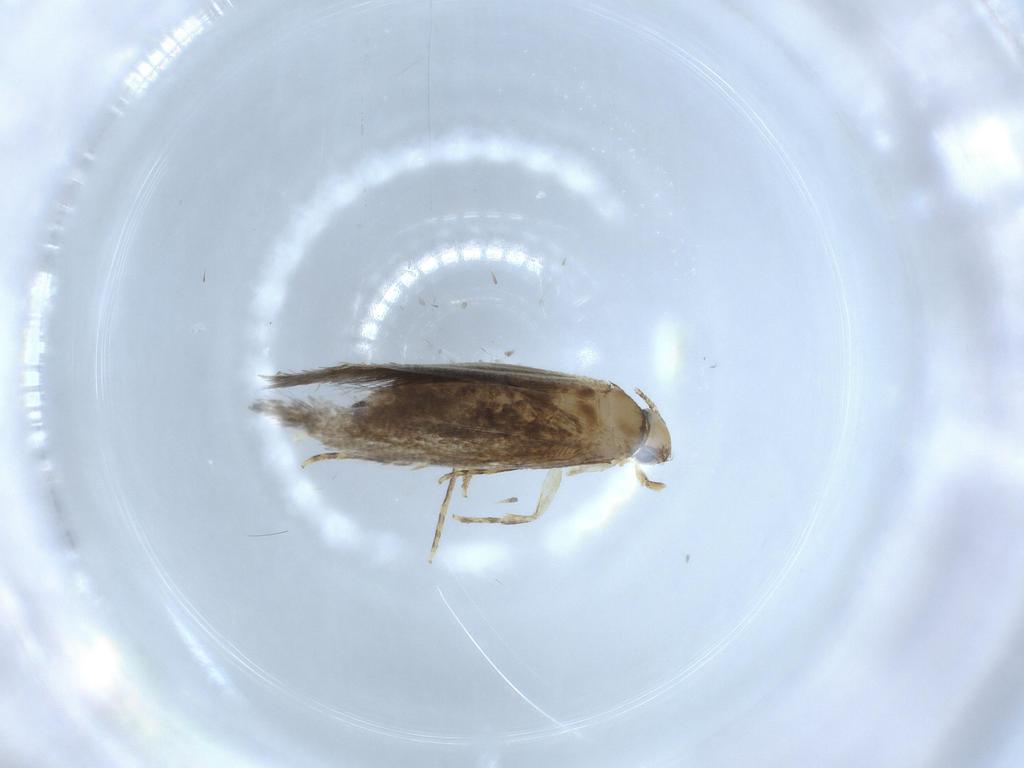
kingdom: Animalia
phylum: Arthropoda
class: Insecta
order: Lepidoptera
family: Tineidae
